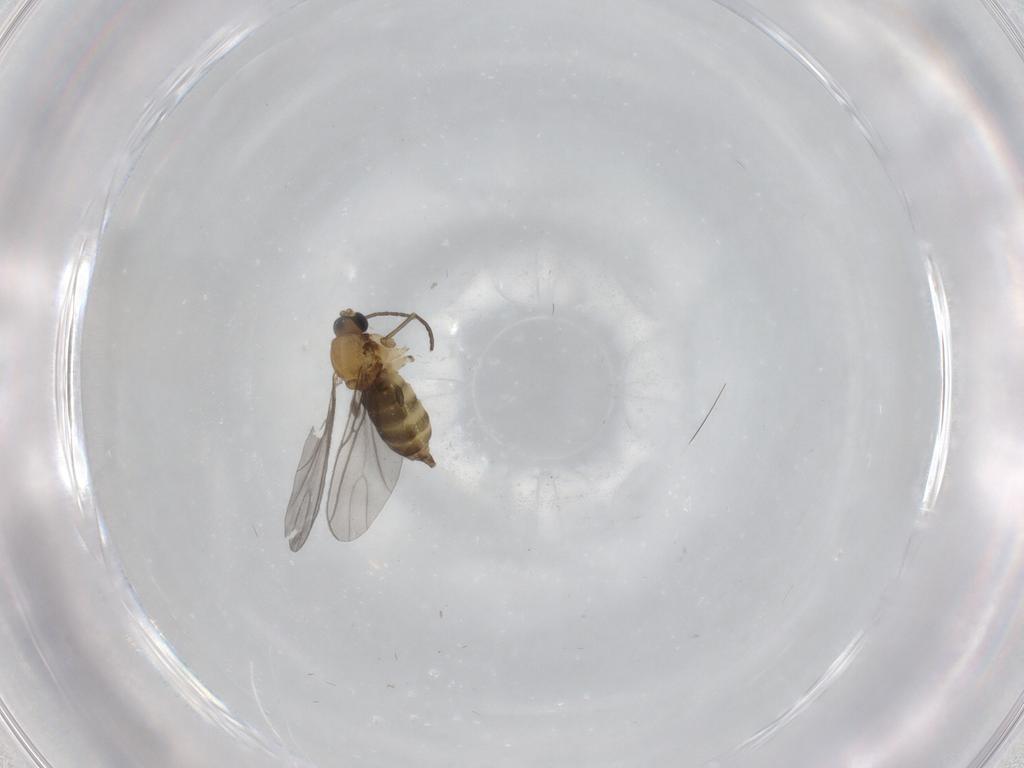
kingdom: Animalia
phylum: Arthropoda
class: Insecta
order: Diptera
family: Sciaridae
